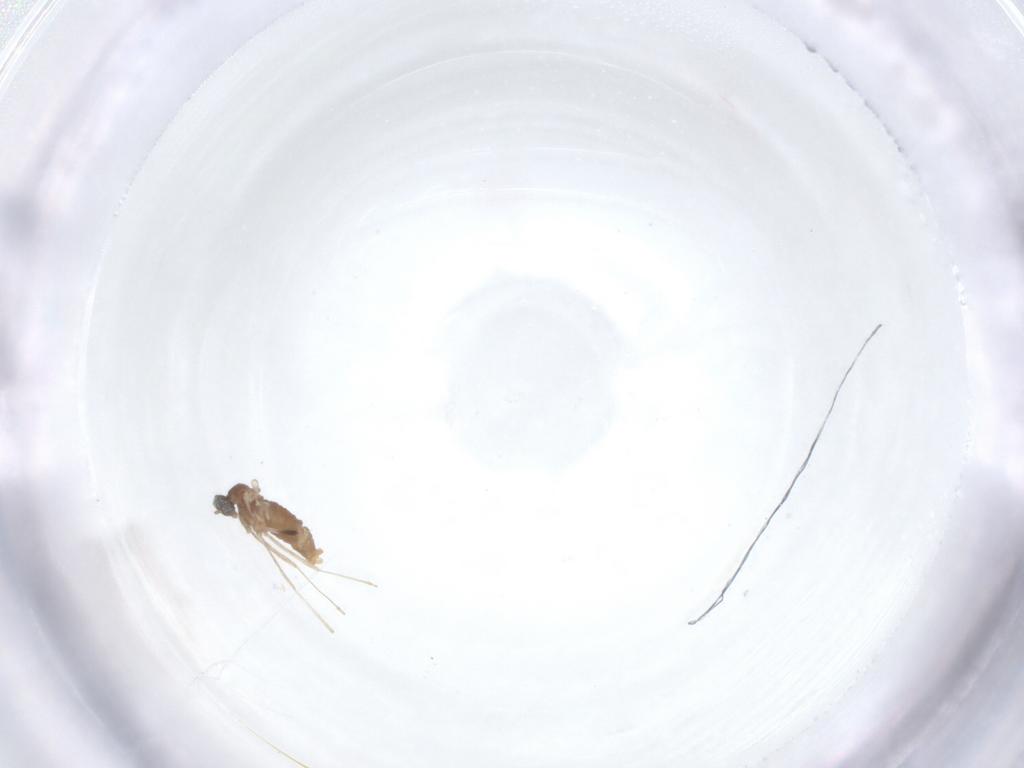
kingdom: Animalia
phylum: Arthropoda
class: Insecta
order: Diptera
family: Cecidomyiidae
